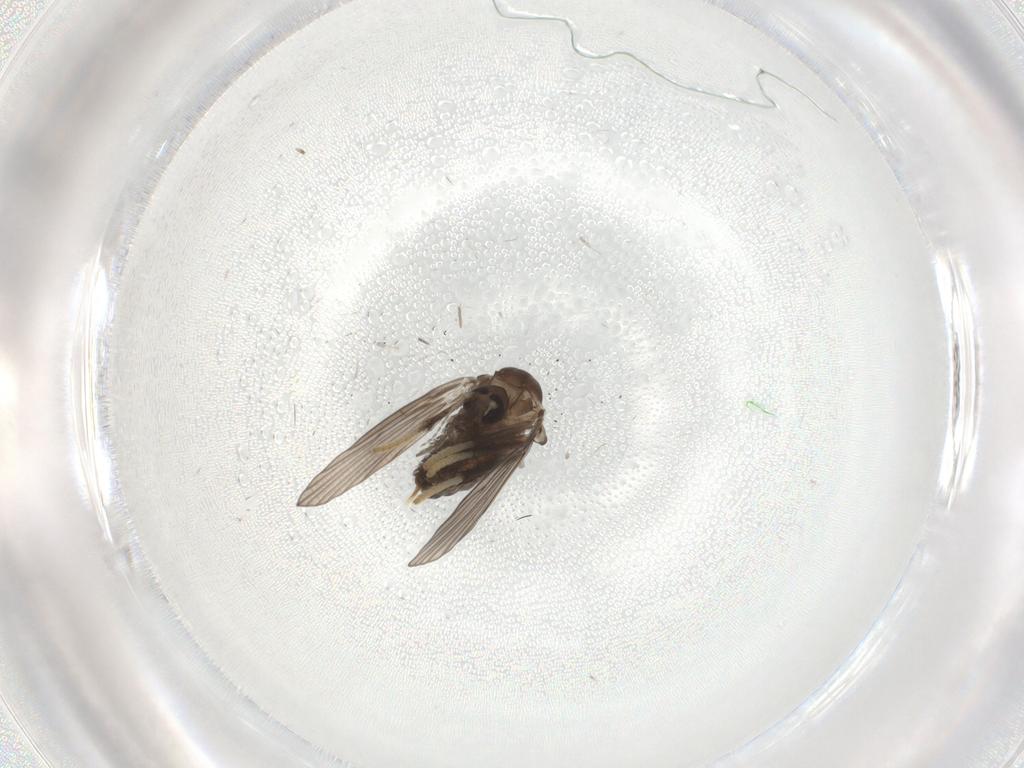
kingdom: Animalia
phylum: Arthropoda
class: Insecta
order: Diptera
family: Psychodidae
